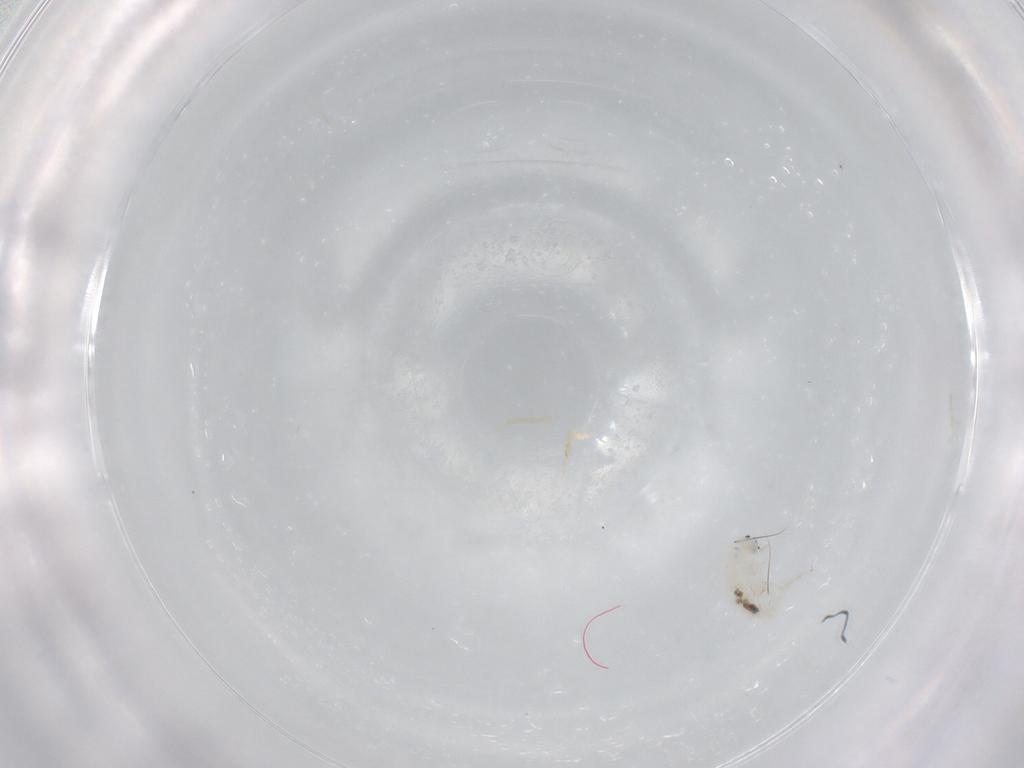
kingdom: Animalia
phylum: Arthropoda
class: Collembola
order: Entomobryomorpha
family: Entomobryidae
